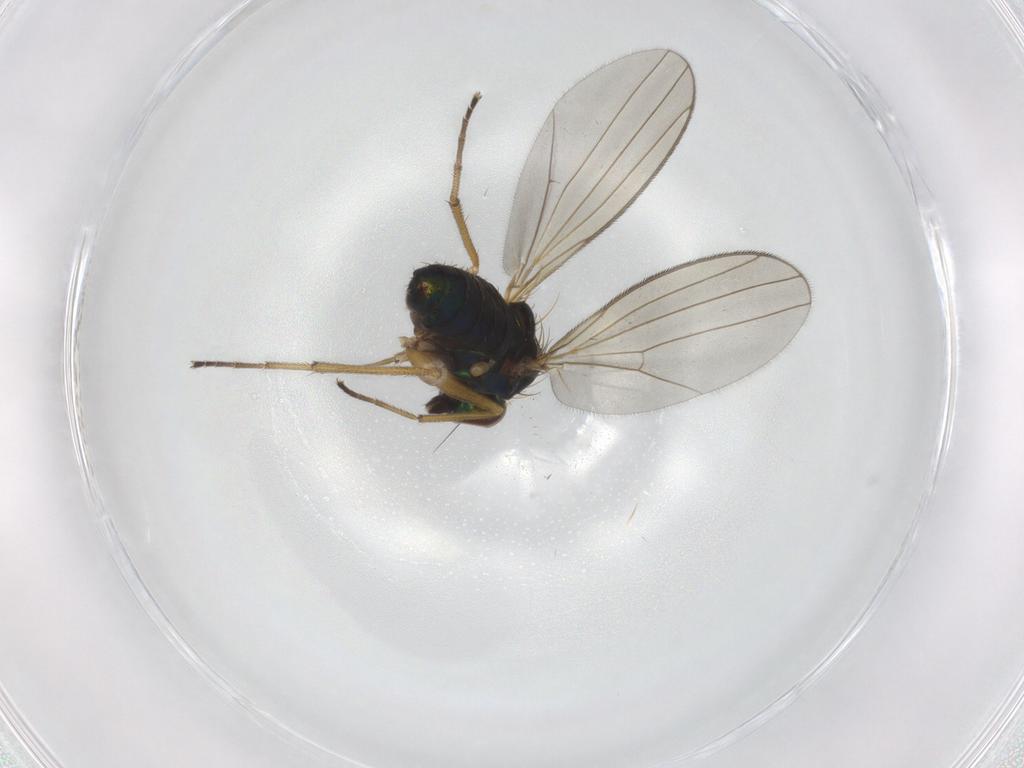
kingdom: Animalia
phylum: Arthropoda
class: Insecta
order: Diptera
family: Dolichopodidae
